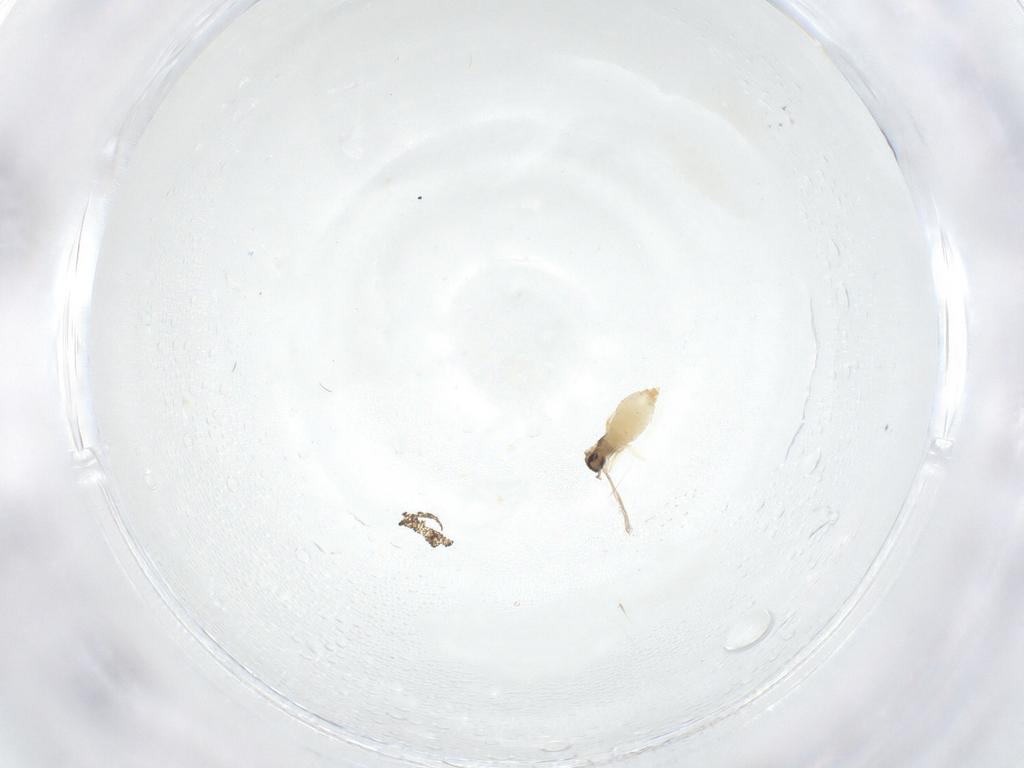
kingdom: Animalia
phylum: Arthropoda
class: Insecta
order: Diptera
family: Cecidomyiidae
